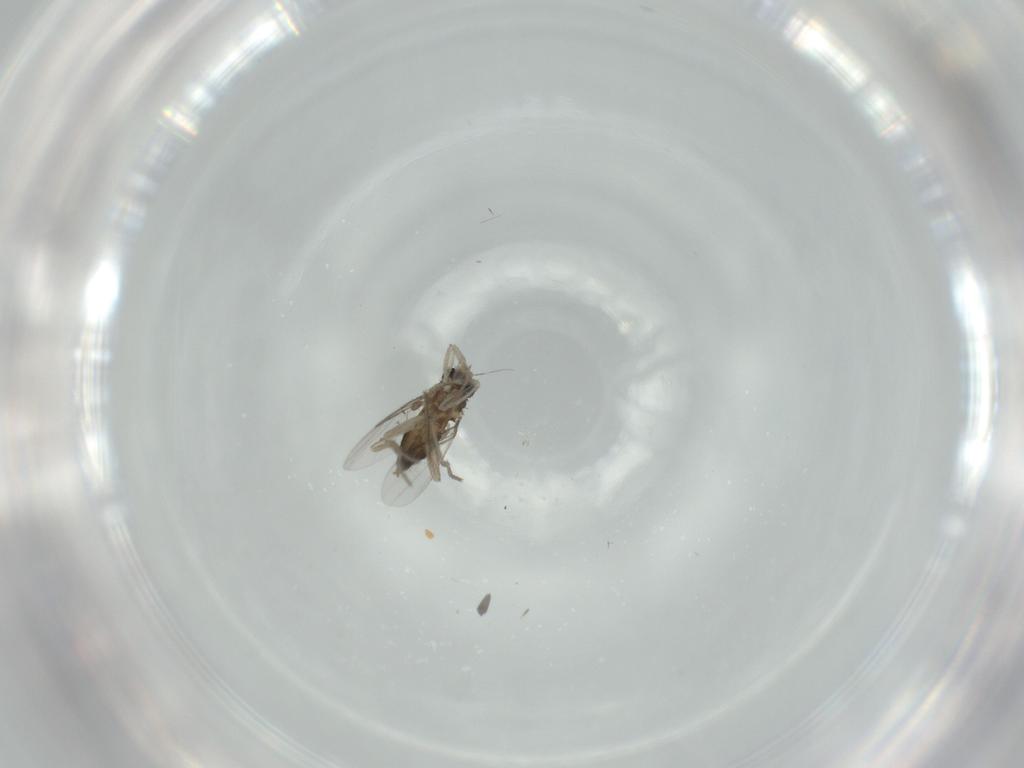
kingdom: Animalia
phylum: Arthropoda
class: Insecta
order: Diptera
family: Phoridae
